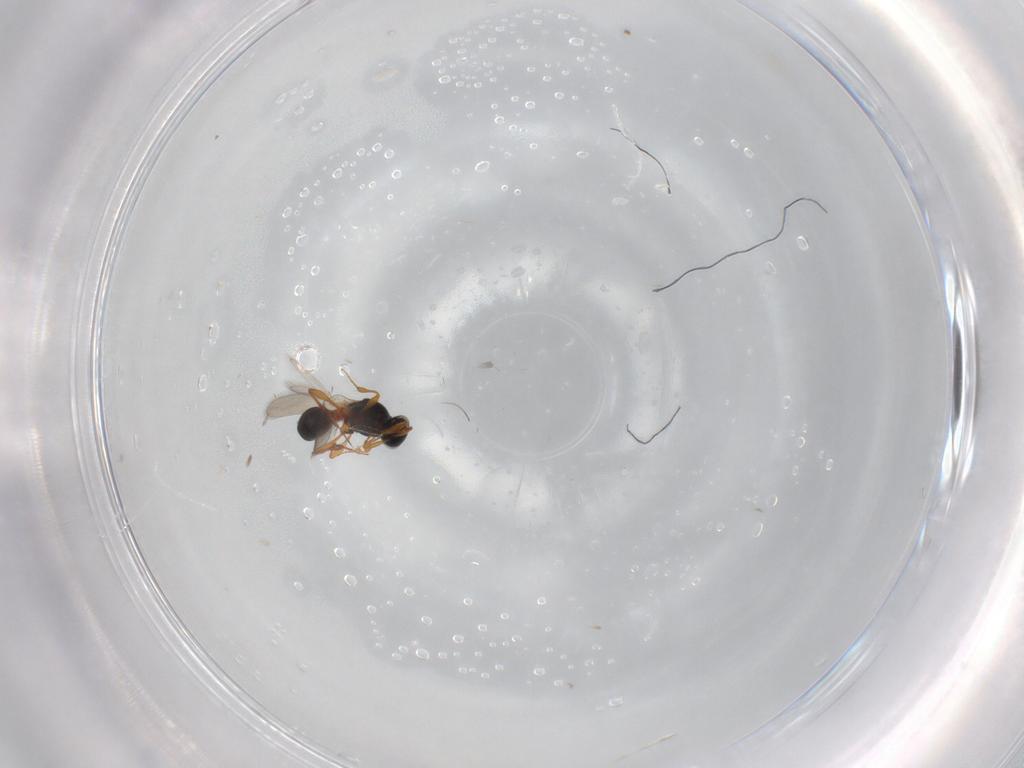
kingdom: Animalia
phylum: Arthropoda
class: Insecta
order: Hymenoptera
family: Platygastridae
